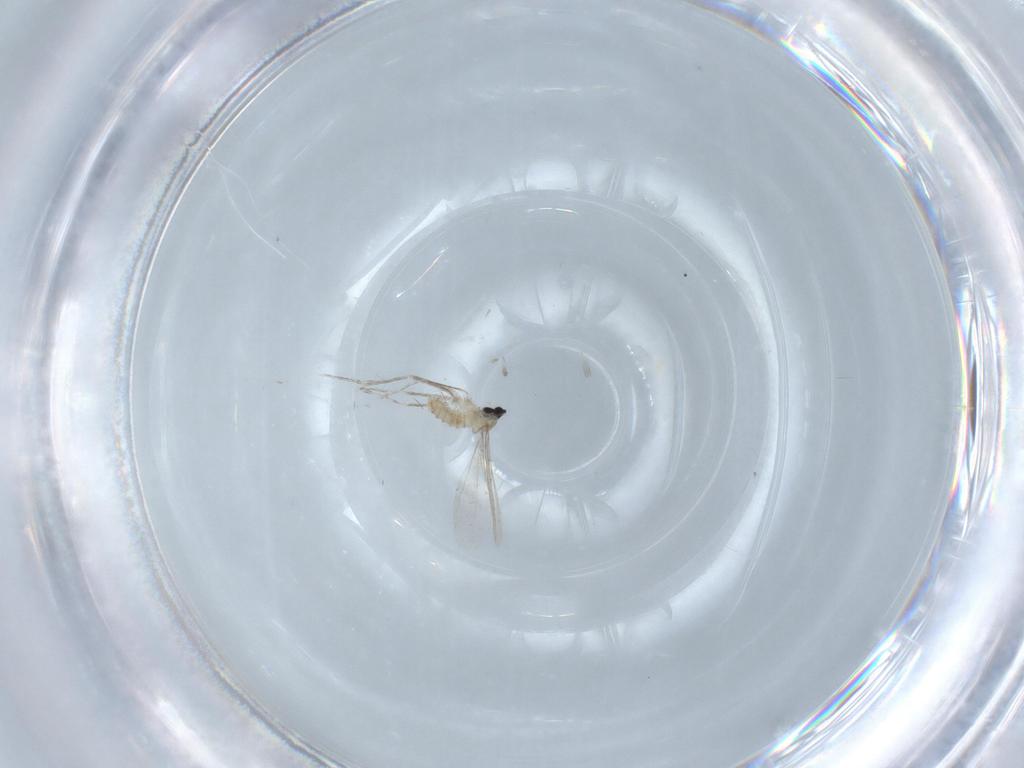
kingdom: Animalia
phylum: Arthropoda
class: Insecta
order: Diptera
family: Cecidomyiidae
